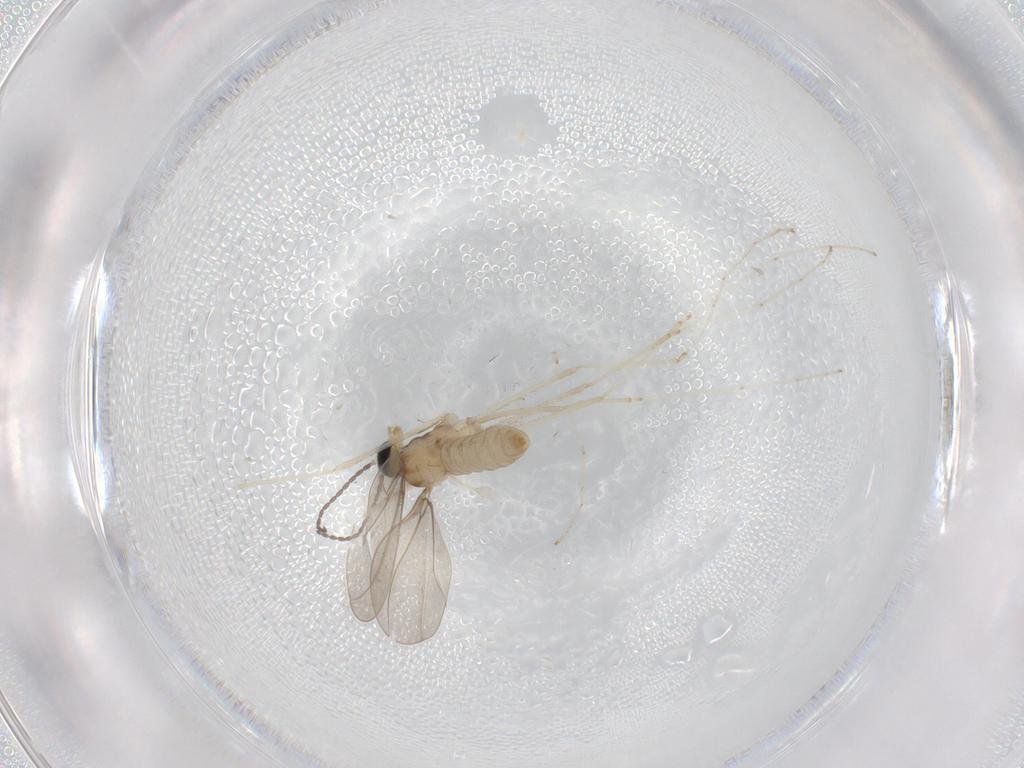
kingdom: Animalia
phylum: Arthropoda
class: Insecta
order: Diptera
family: Cecidomyiidae
